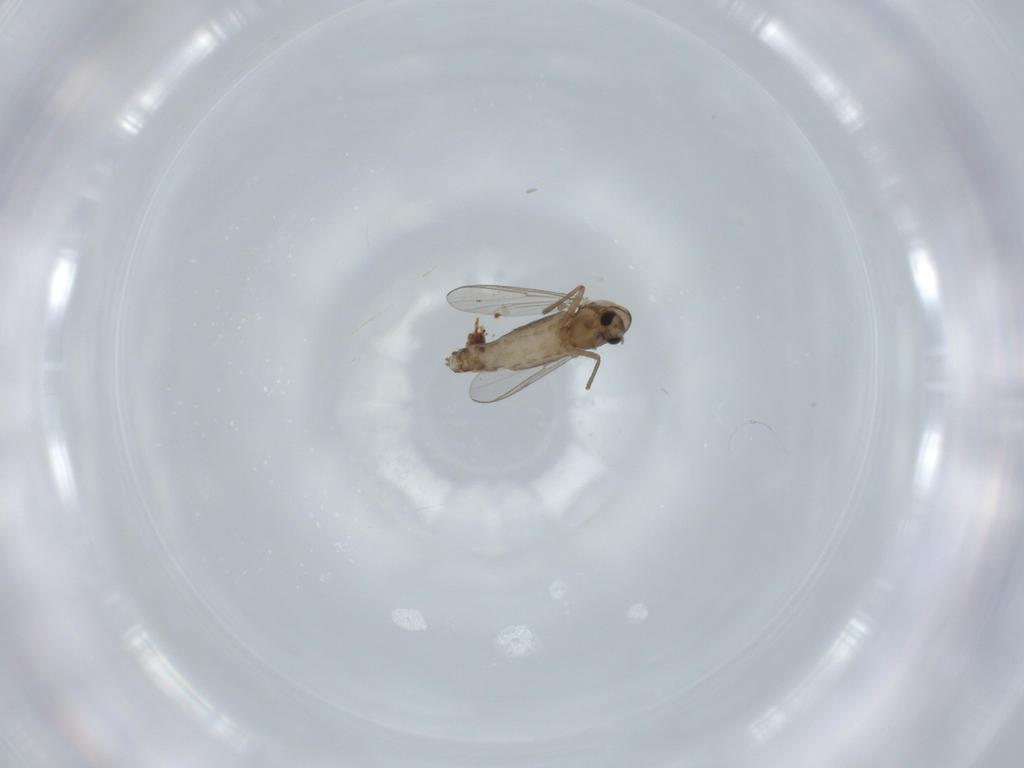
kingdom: Animalia
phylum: Arthropoda
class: Insecta
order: Diptera
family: Chironomidae
